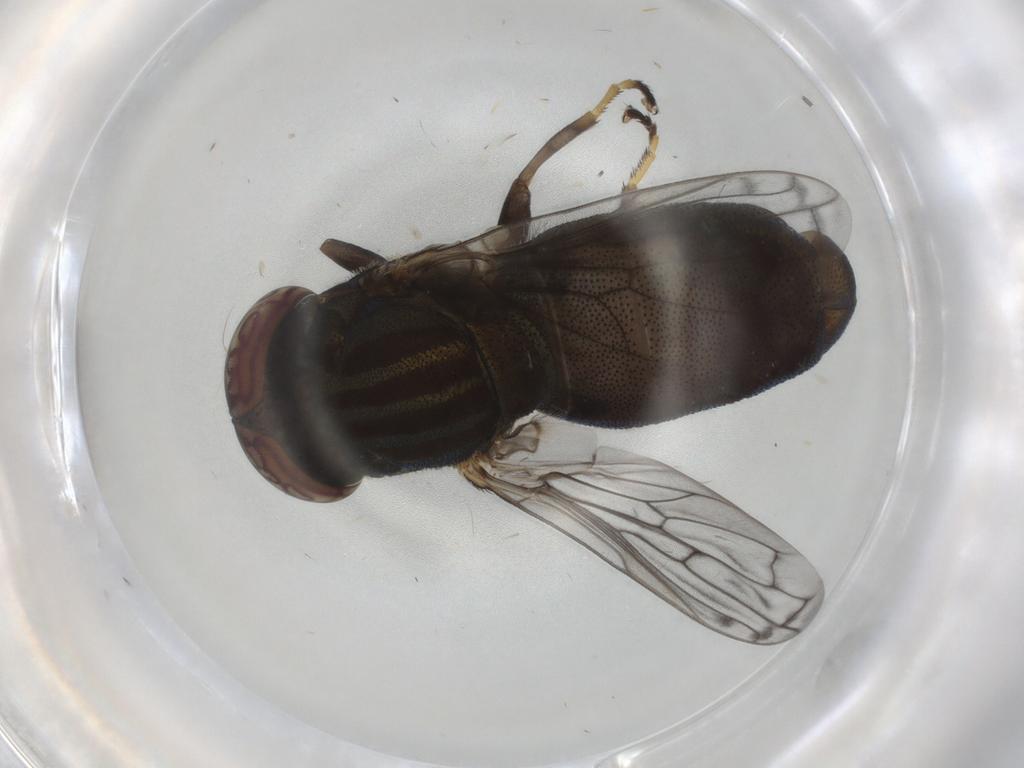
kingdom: Animalia
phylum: Arthropoda
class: Insecta
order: Diptera
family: Syrphidae
